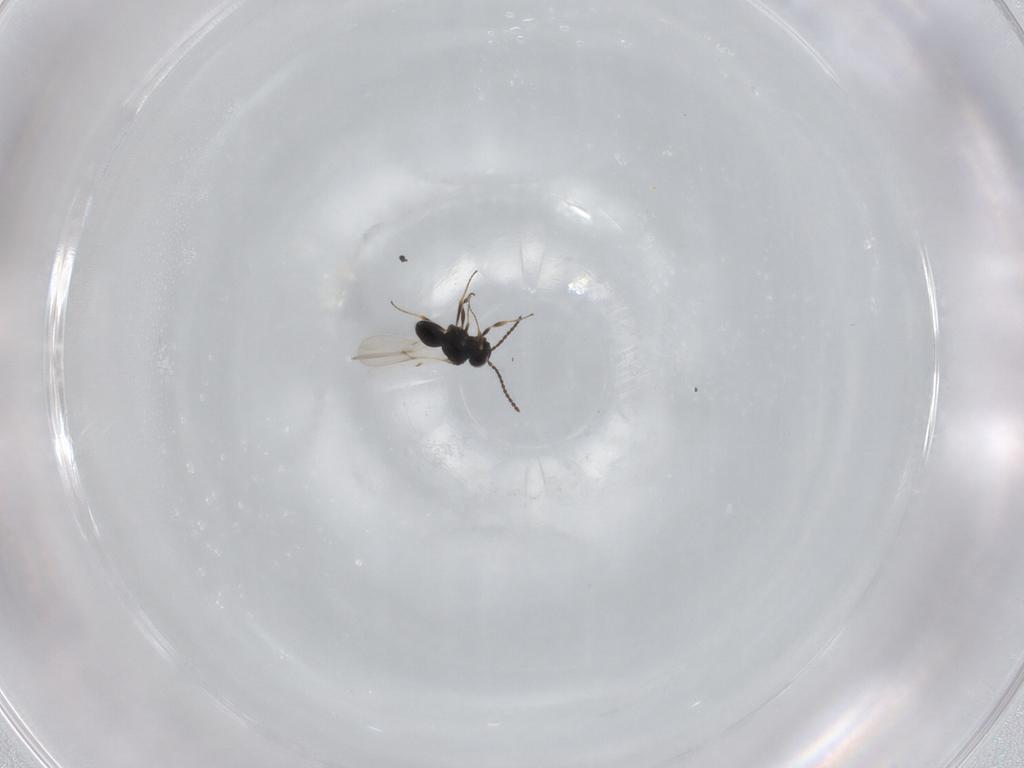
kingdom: Animalia
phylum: Arthropoda
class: Insecta
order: Hymenoptera
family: Scelionidae
